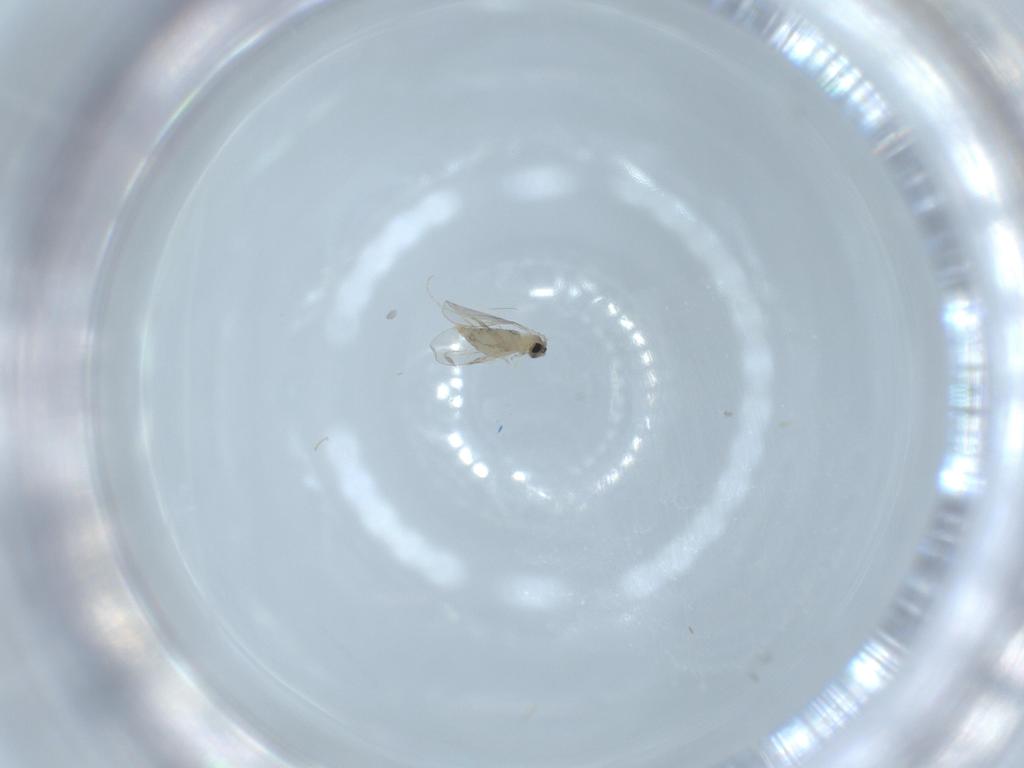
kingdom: Animalia
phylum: Arthropoda
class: Insecta
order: Diptera
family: Cecidomyiidae
